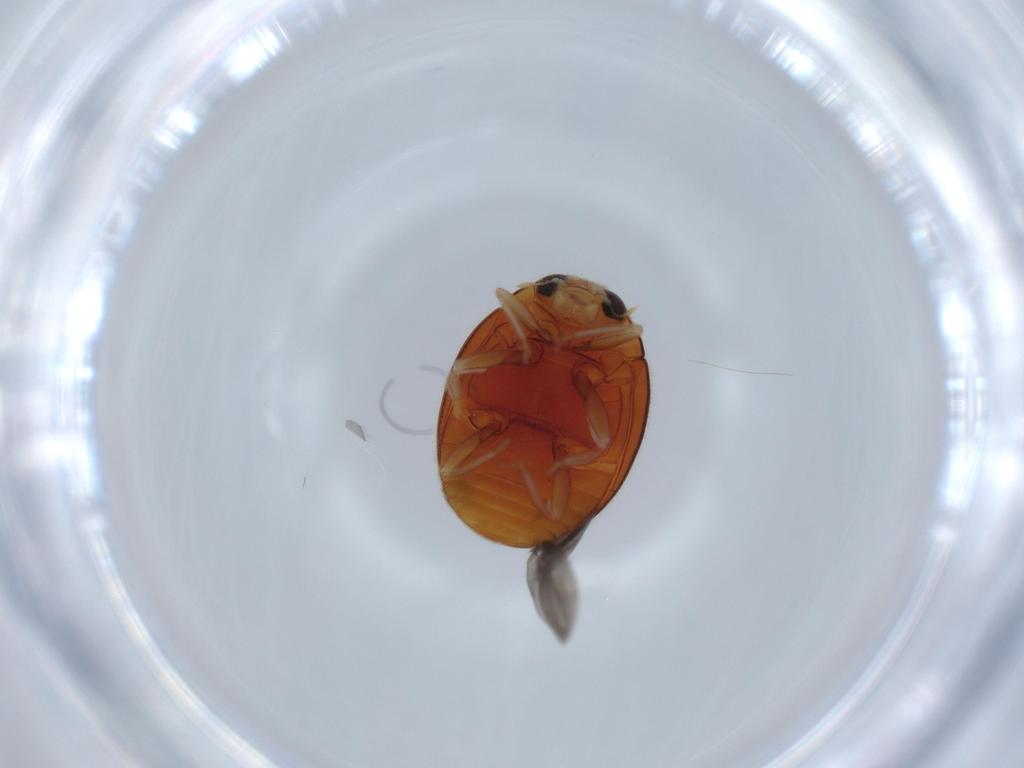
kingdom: Animalia
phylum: Arthropoda
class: Insecta
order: Coleoptera
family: Coccinellidae
